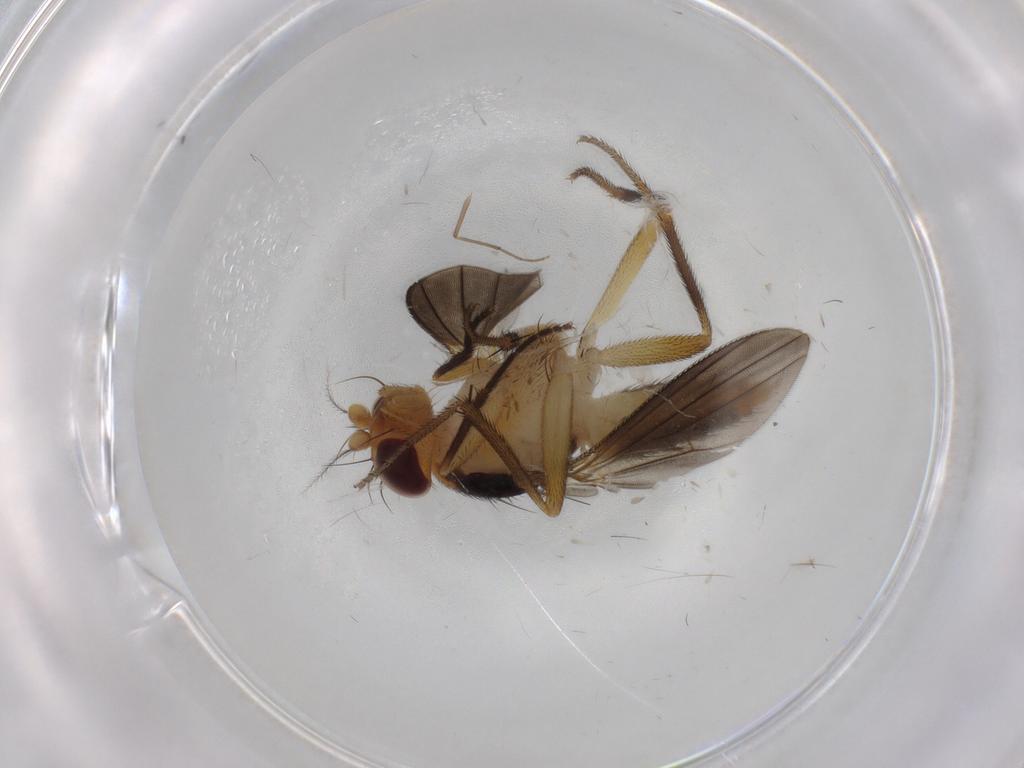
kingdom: Animalia
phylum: Arthropoda
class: Insecta
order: Diptera
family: Clusiidae
